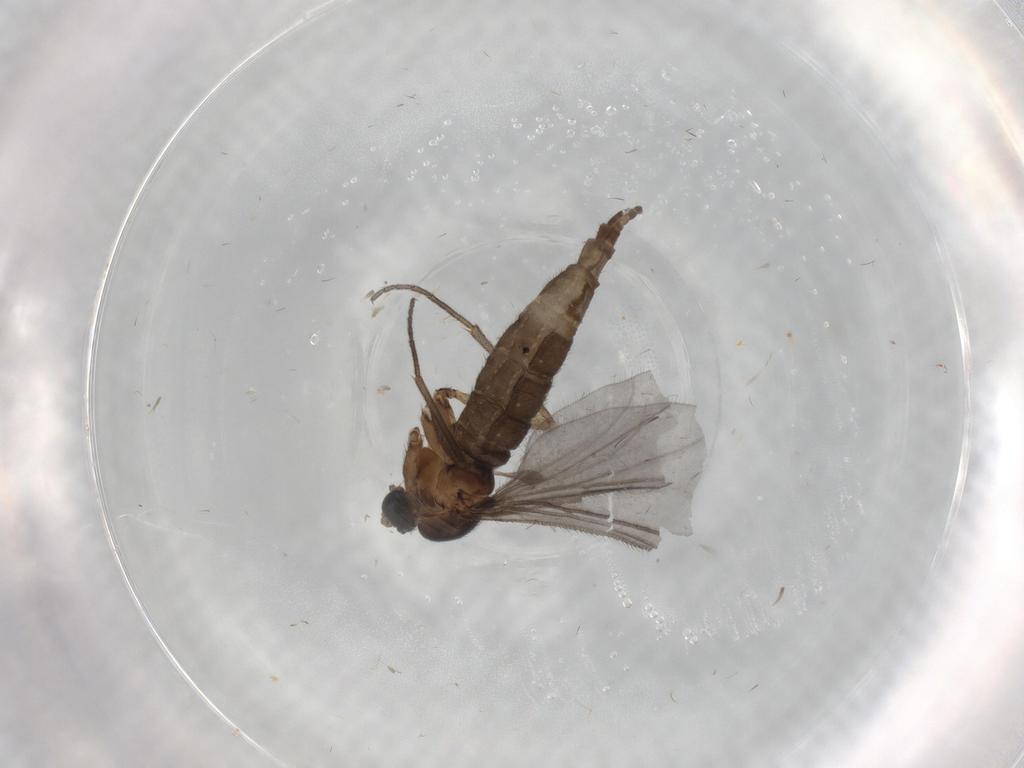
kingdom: Animalia
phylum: Arthropoda
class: Insecta
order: Diptera
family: Sciaridae
